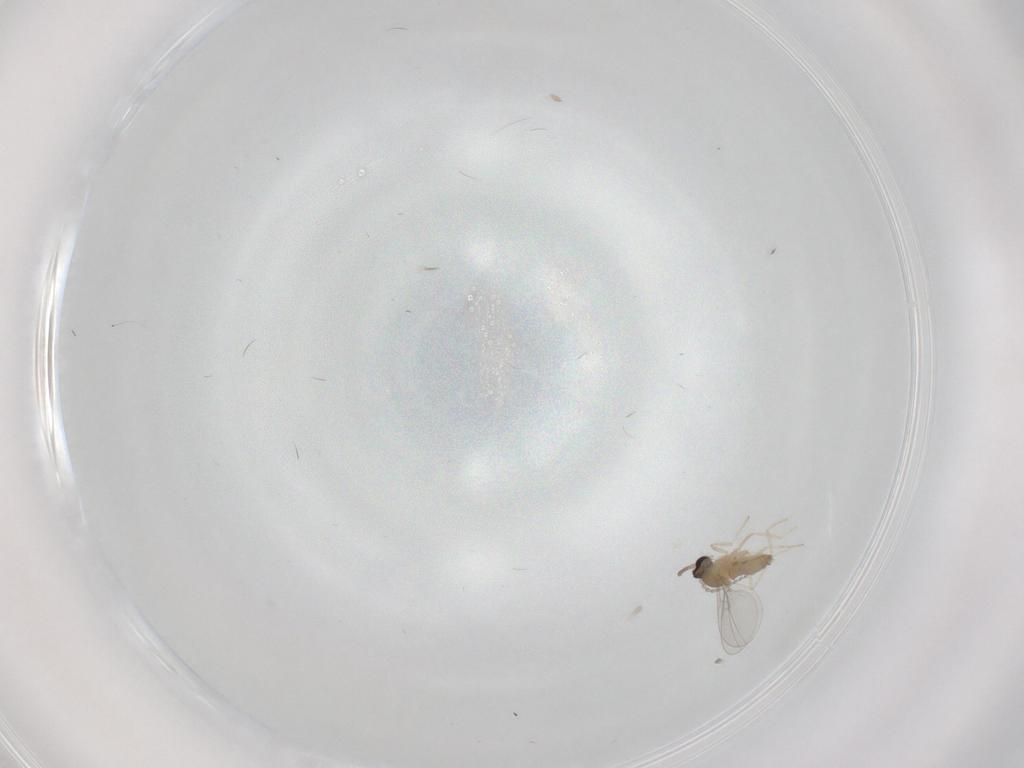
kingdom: Animalia
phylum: Arthropoda
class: Insecta
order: Diptera
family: Cecidomyiidae
